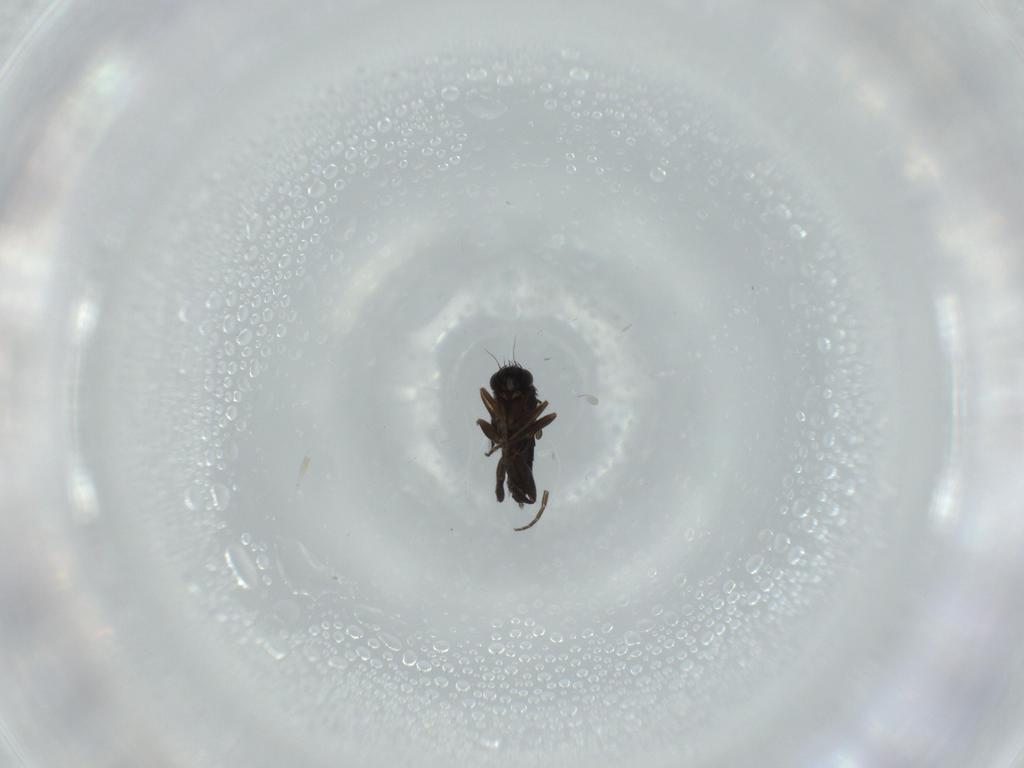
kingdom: Animalia
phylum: Arthropoda
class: Insecta
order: Diptera
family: Phoridae
